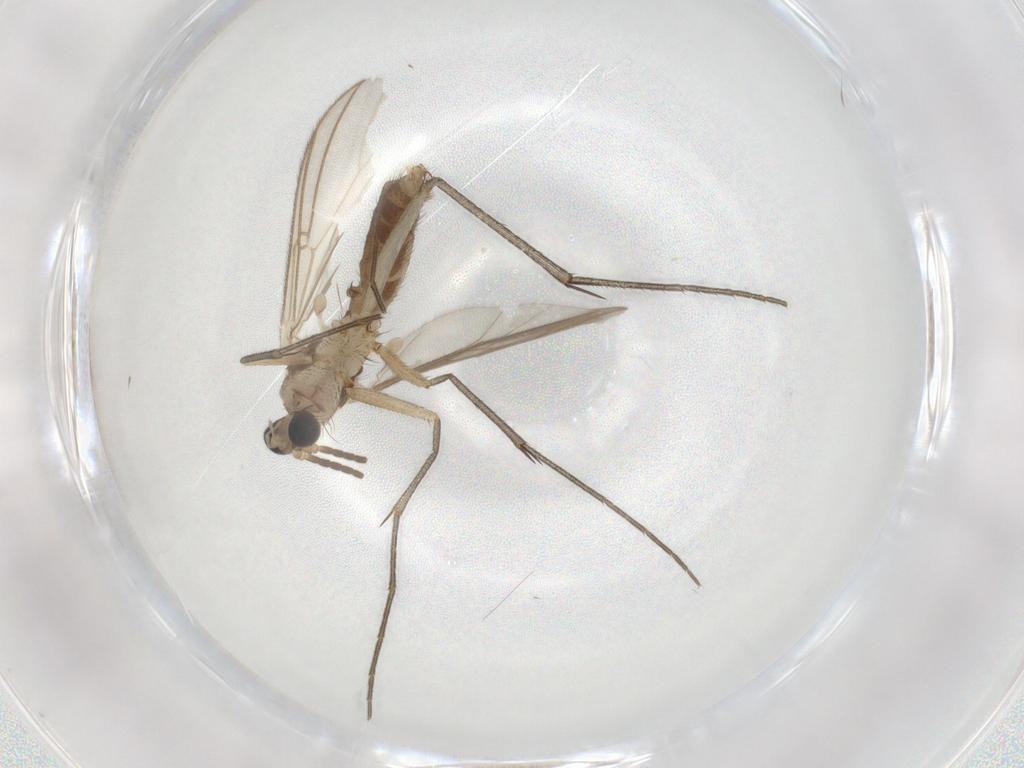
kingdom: Animalia
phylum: Arthropoda
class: Insecta
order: Diptera
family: Mycetophilidae
